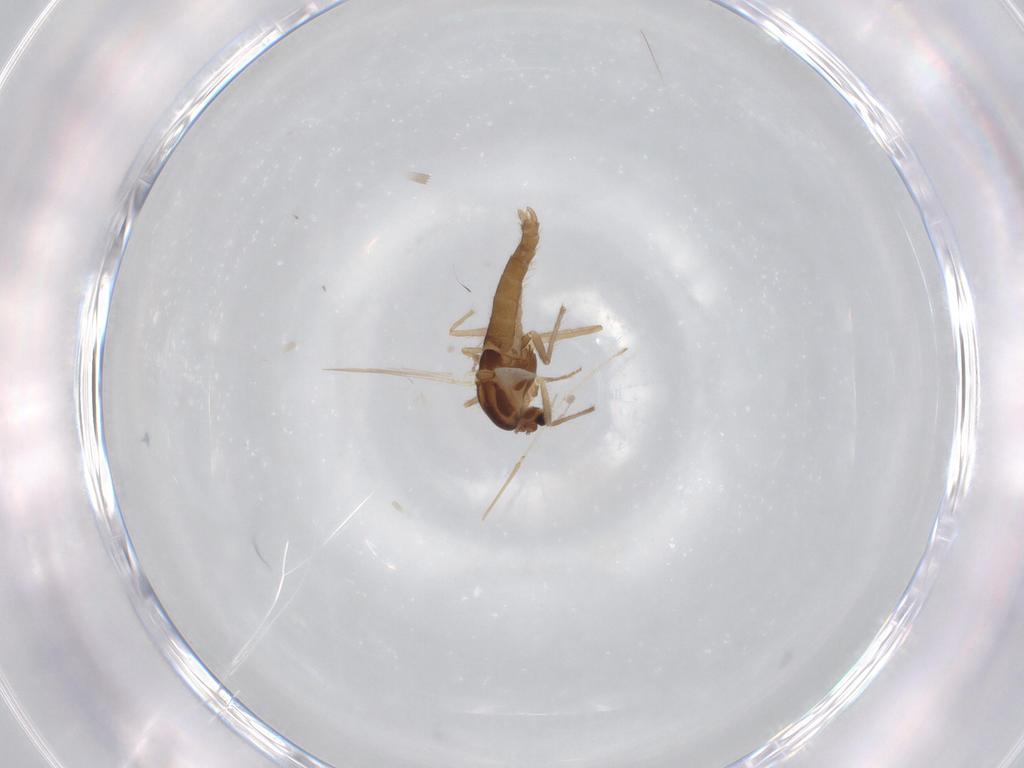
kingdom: Animalia
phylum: Arthropoda
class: Insecta
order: Diptera
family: Chironomidae
